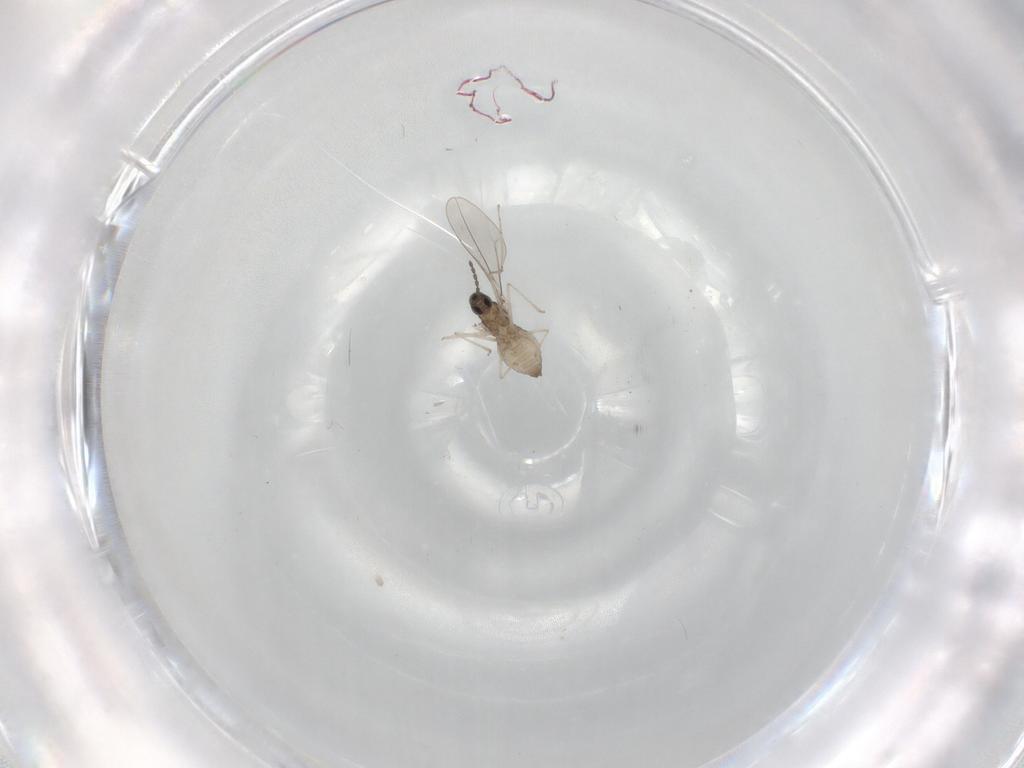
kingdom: Animalia
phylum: Arthropoda
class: Insecta
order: Diptera
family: Cecidomyiidae
